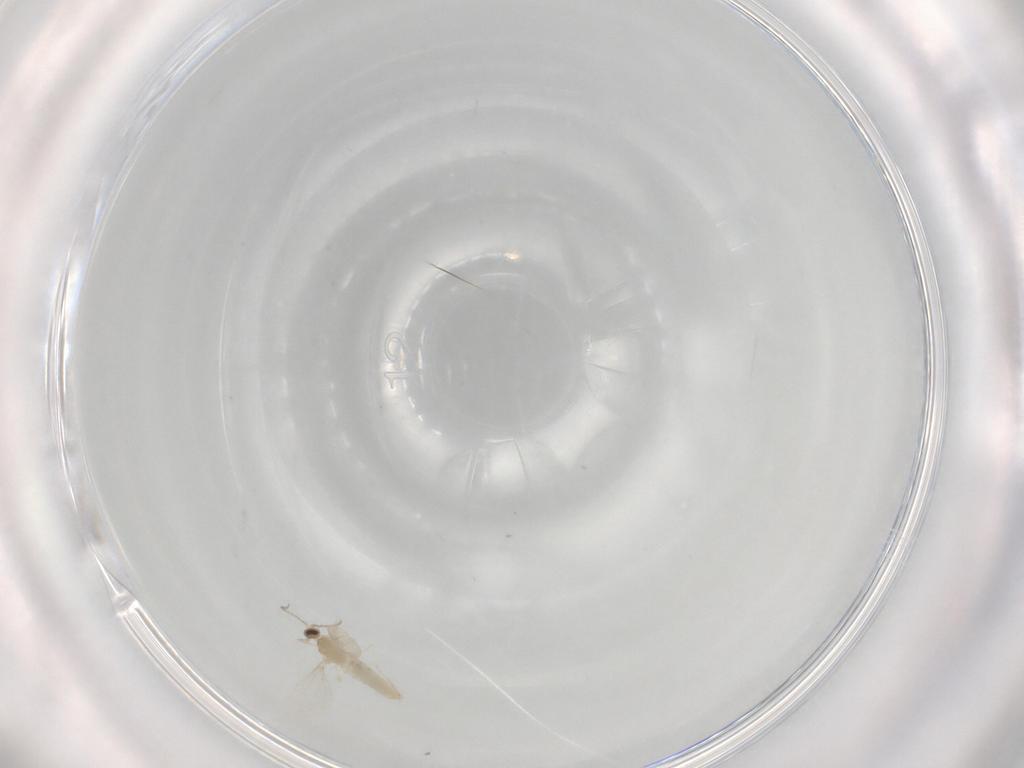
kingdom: Animalia
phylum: Arthropoda
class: Insecta
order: Diptera
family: Cecidomyiidae
